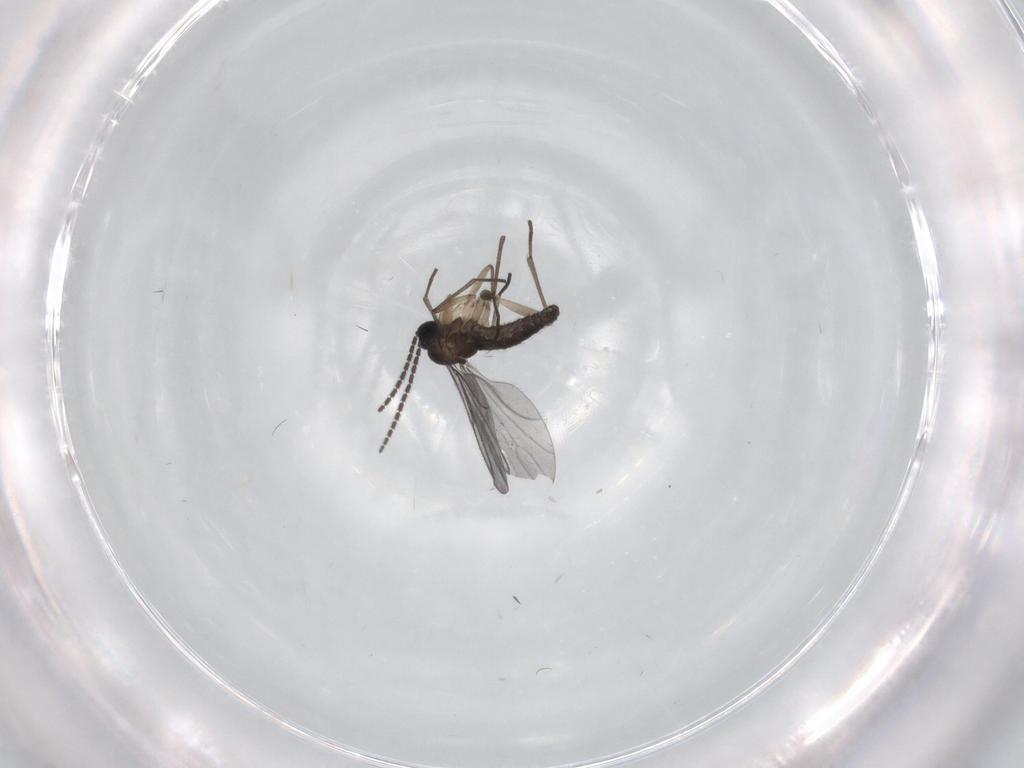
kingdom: Animalia
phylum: Arthropoda
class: Insecta
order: Diptera
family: Sciaridae
